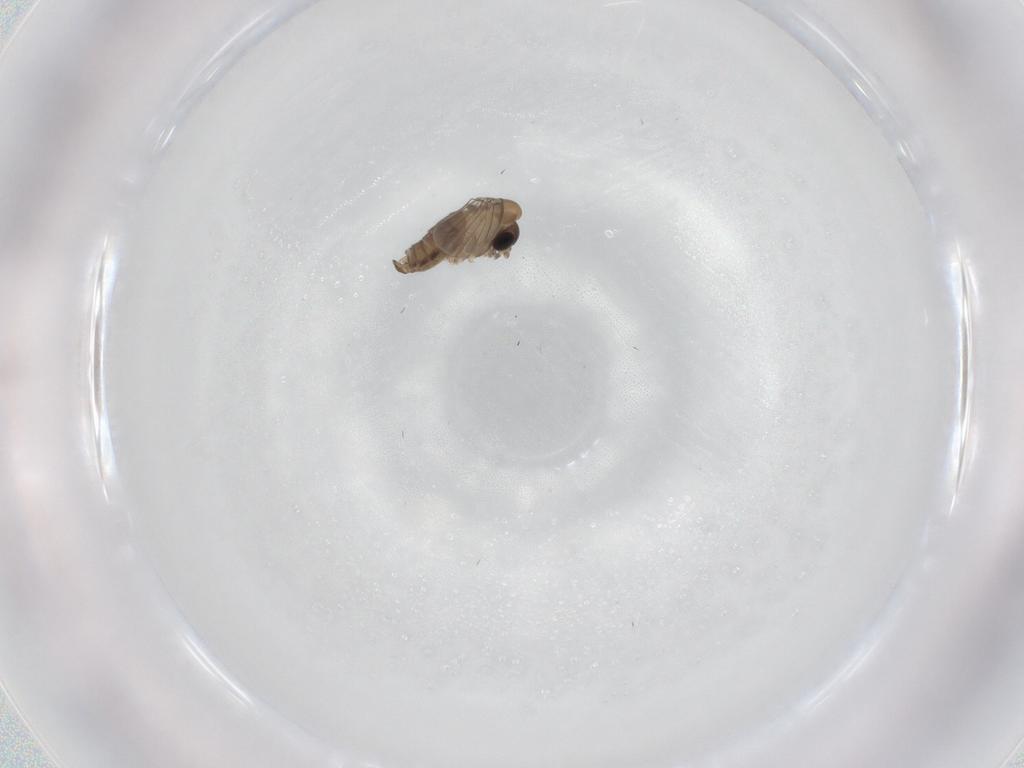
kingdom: Animalia
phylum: Arthropoda
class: Insecta
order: Diptera
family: Psychodidae
